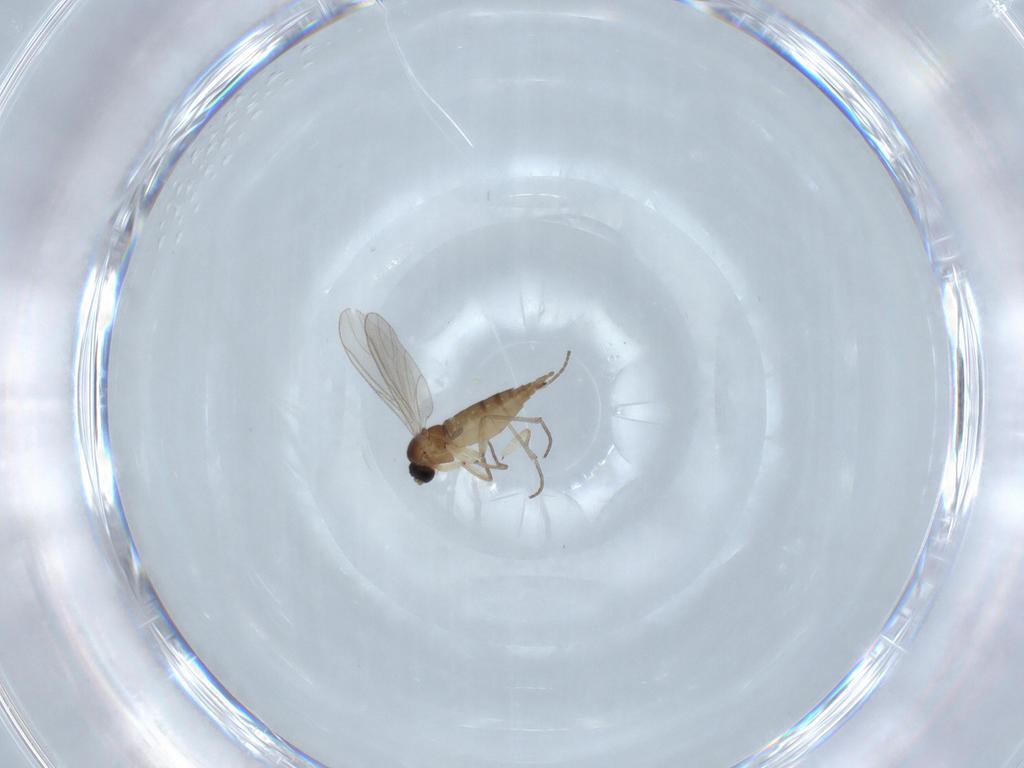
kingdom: Animalia
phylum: Arthropoda
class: Insecta
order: Diptera
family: Sciaridae
